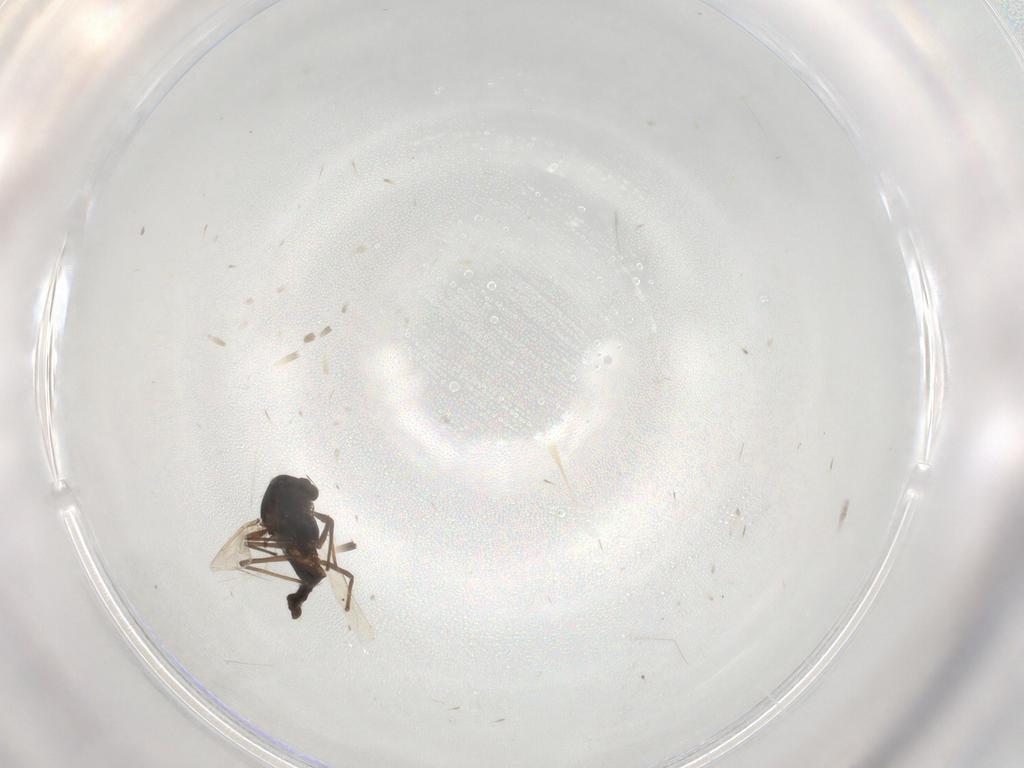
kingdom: Animalia
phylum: Arthropoda
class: Insecta
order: Diptera
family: Chironomidae
